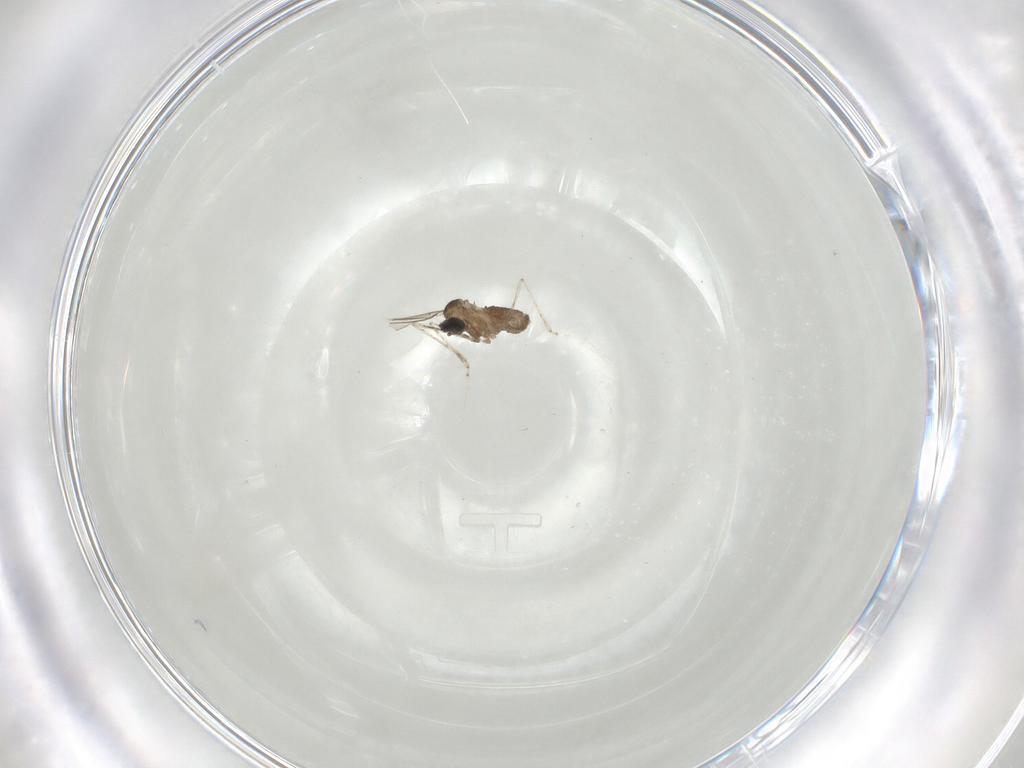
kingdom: Animalia
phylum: Arthropoda
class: Insecta
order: Diptera
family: Cecidomyiidae
